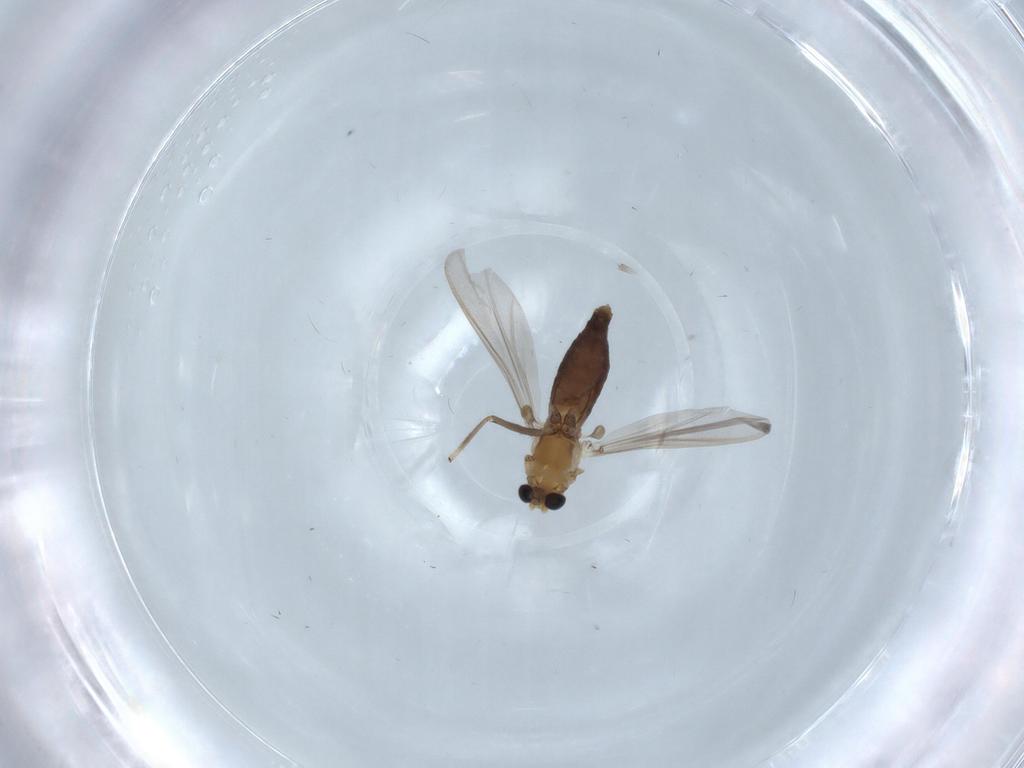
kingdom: Animalia
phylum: Arthropoda
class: Insecta
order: Diptera
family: Chironomidae
